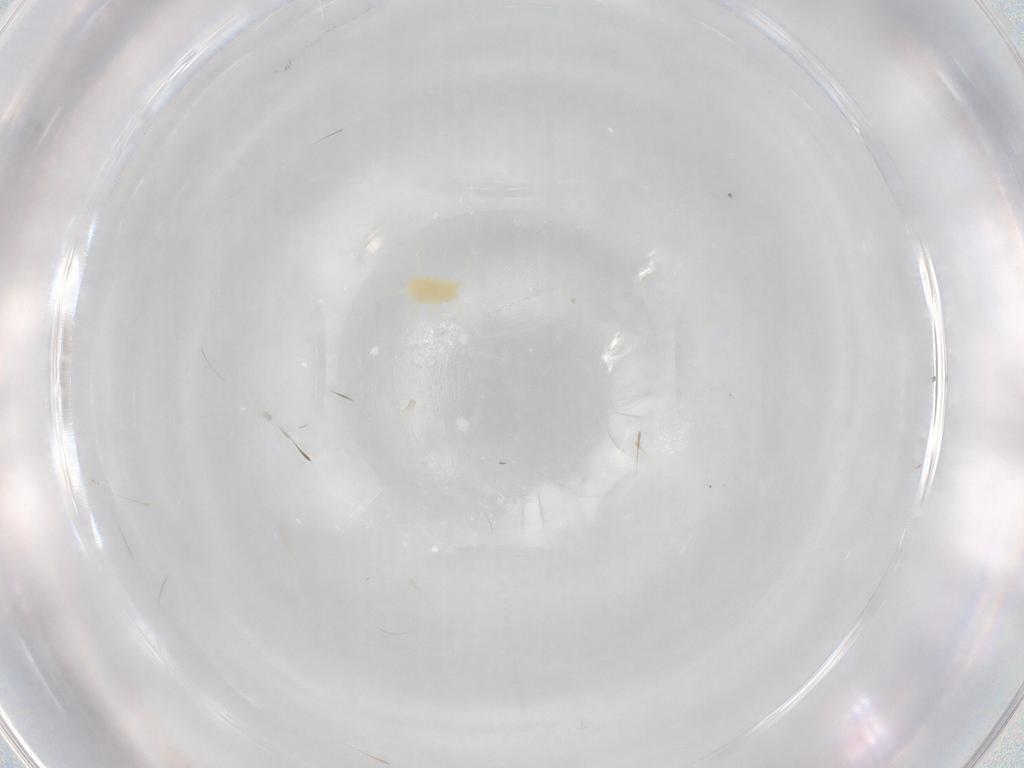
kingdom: Animalia
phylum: Arthropoda
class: Arachnida
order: Trombidiformes
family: Tetranychidae
